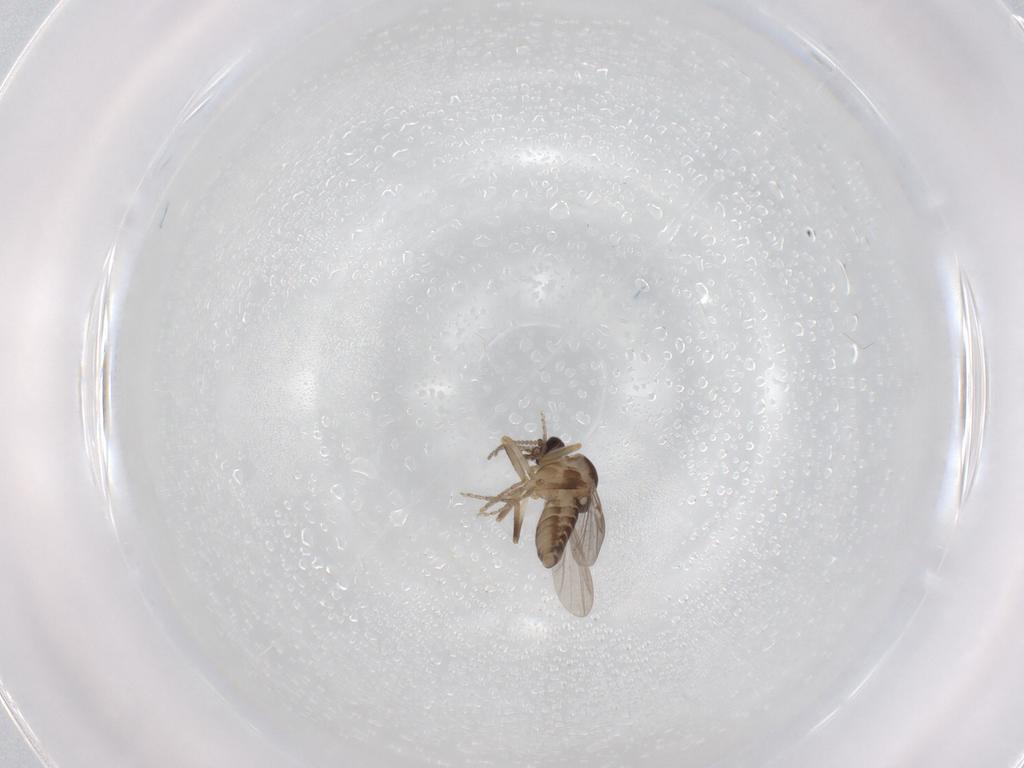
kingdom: Animalia
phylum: Arthropoda
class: Insecta
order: Diptera
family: Ceratopogonidae
